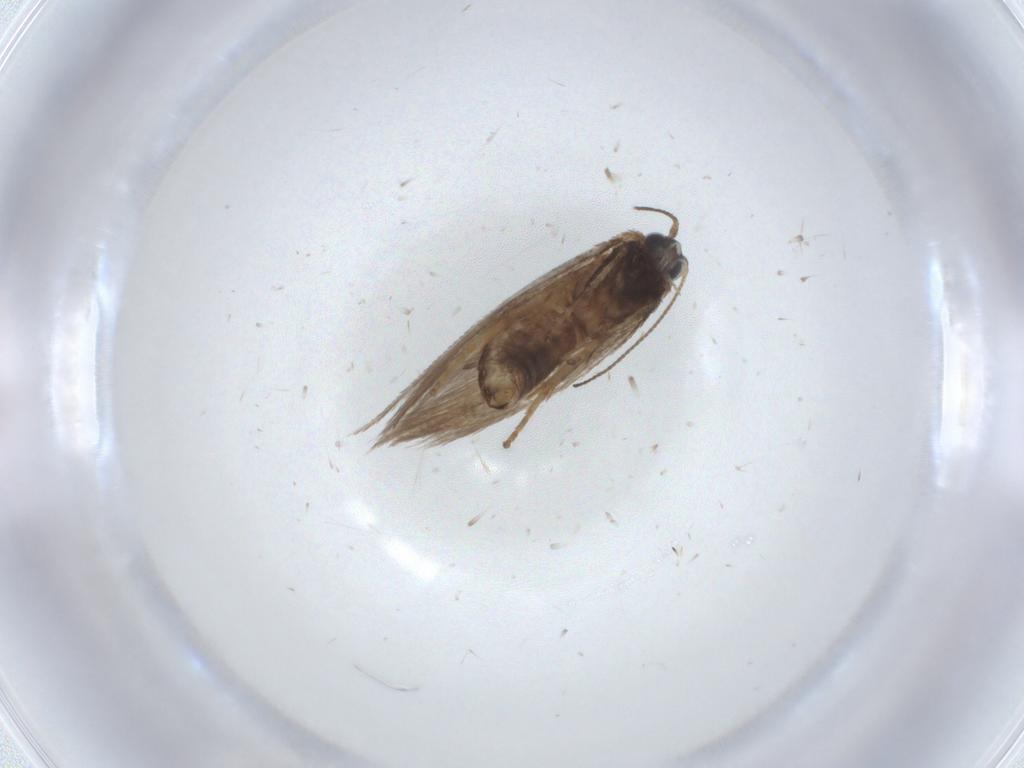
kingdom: Animalia
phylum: Arthropoda
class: Insecta
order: Lepidoptera
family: Nepticulidae
